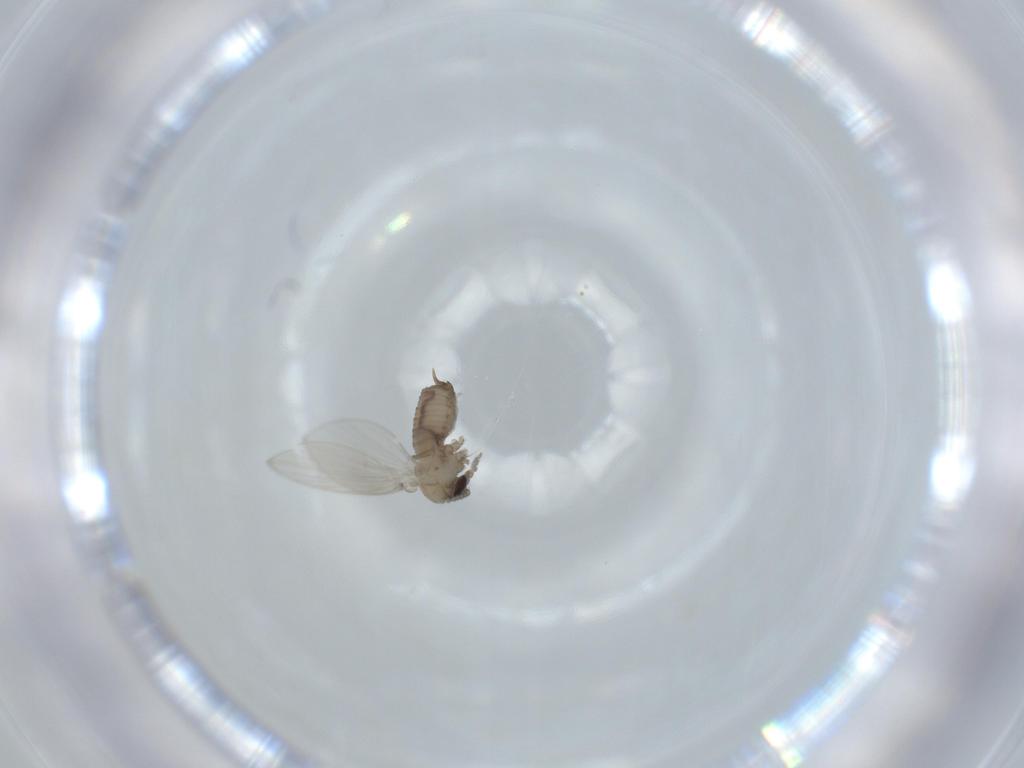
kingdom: Animalia
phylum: Arthropoda
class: Insecta
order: Diptera
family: Psychodidae
